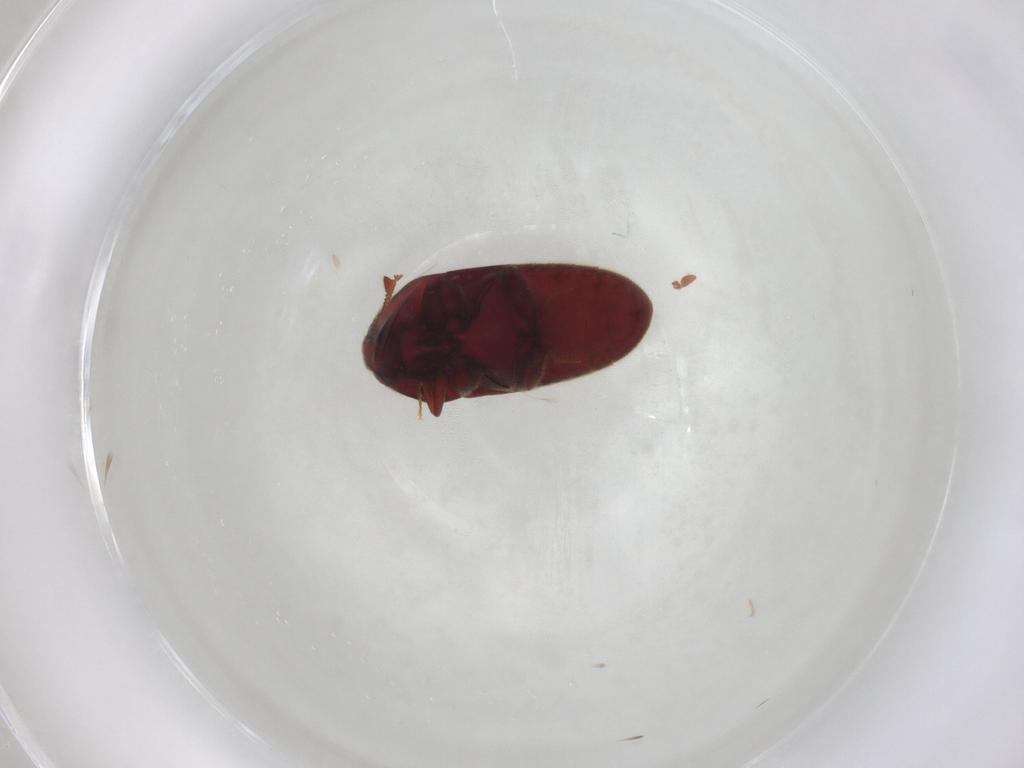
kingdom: Animalia
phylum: Arthropoda
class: Insecta
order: Coleoptera
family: Throscidae
